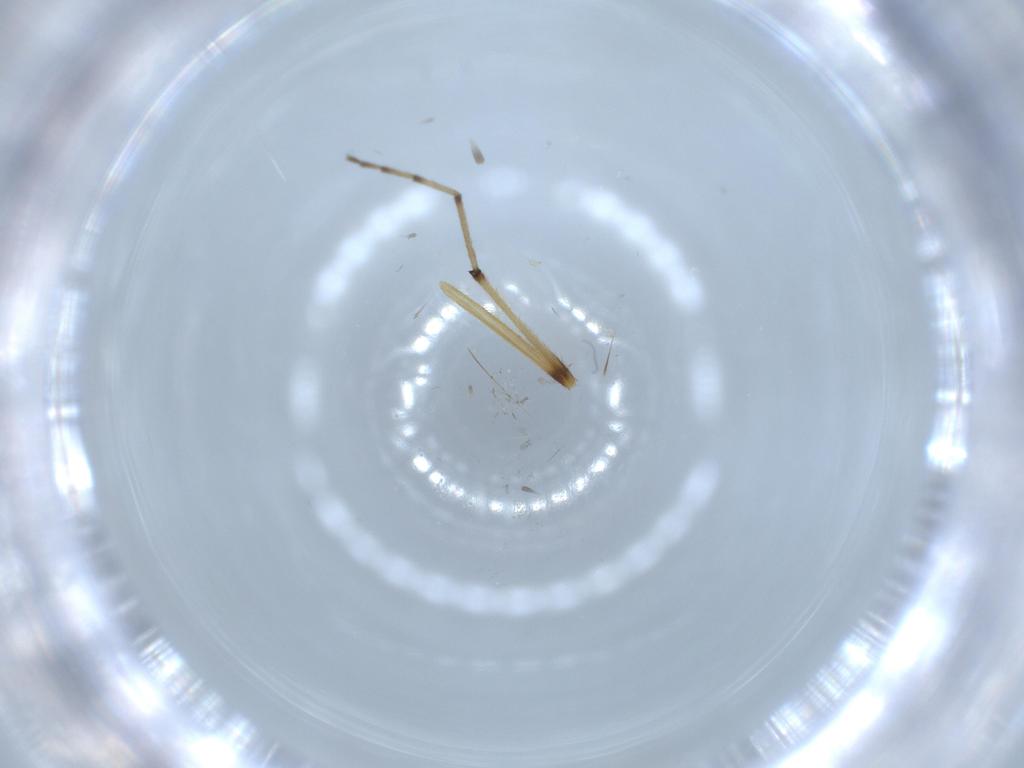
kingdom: Animalia
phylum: Arthropoda
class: Insecta
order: Diptera
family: Chironomidae
